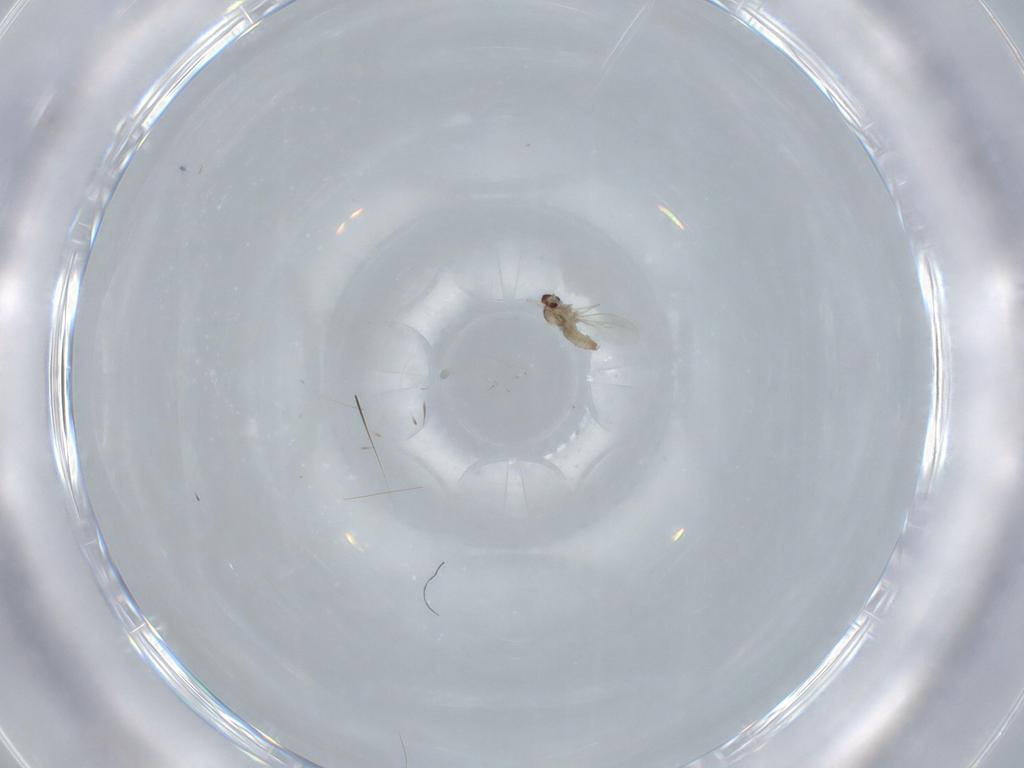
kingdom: Animalia
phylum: Arthropoda
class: Insecta
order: Diptera
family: Cecidomyiidae
